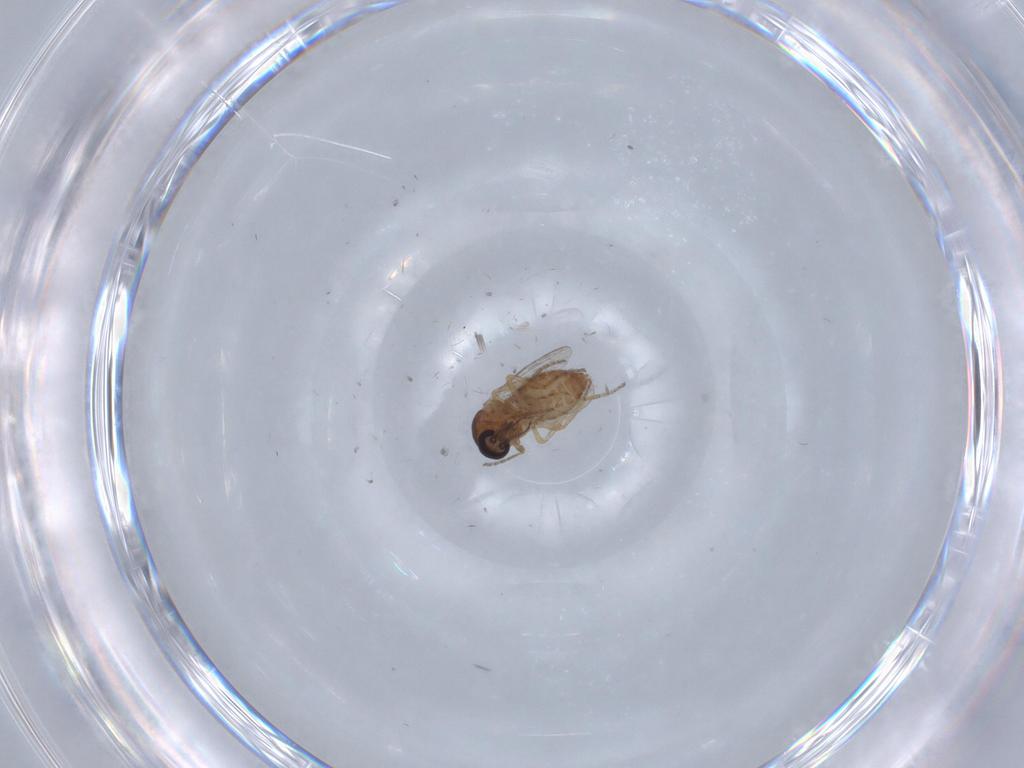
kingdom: Animalia
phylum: Arthropoda
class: Insecta
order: Diptera
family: Ceratopogonidae
